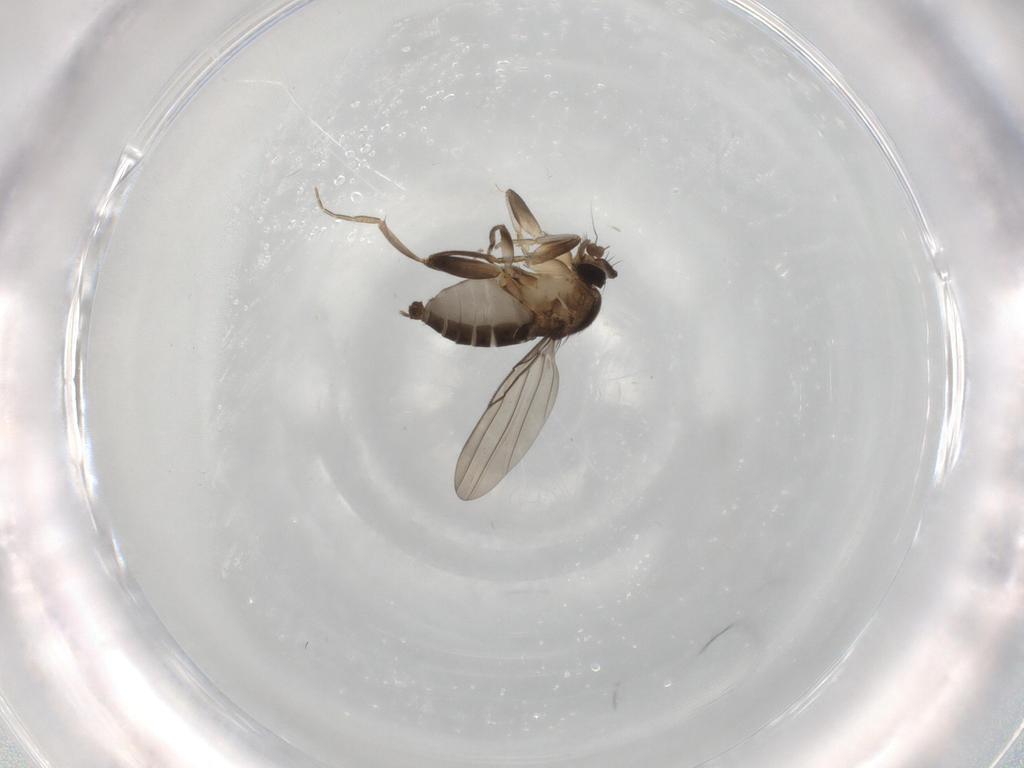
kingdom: Animalia
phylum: Arthropoda
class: Insecta
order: Diptera
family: Phoridae
